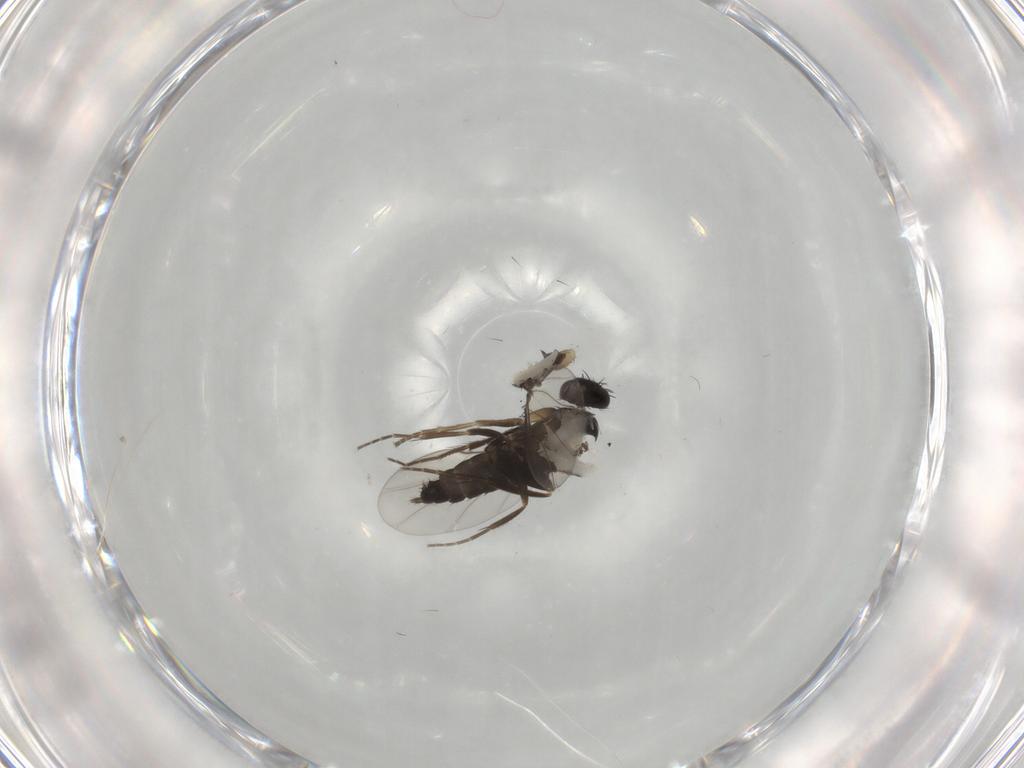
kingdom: Animalia
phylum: Arthropoda
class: Insecta
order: Diptera
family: Phoridae
